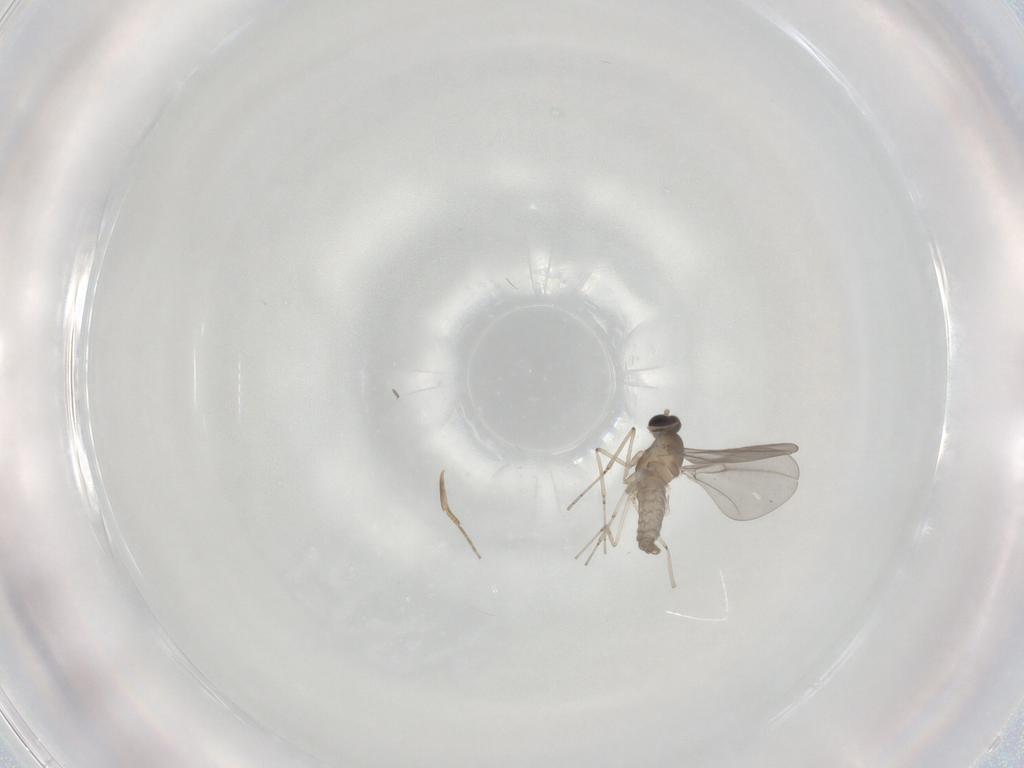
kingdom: Animalia
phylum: Arthropoda
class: Insecta
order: Diptera
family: Cecidomyiidae
